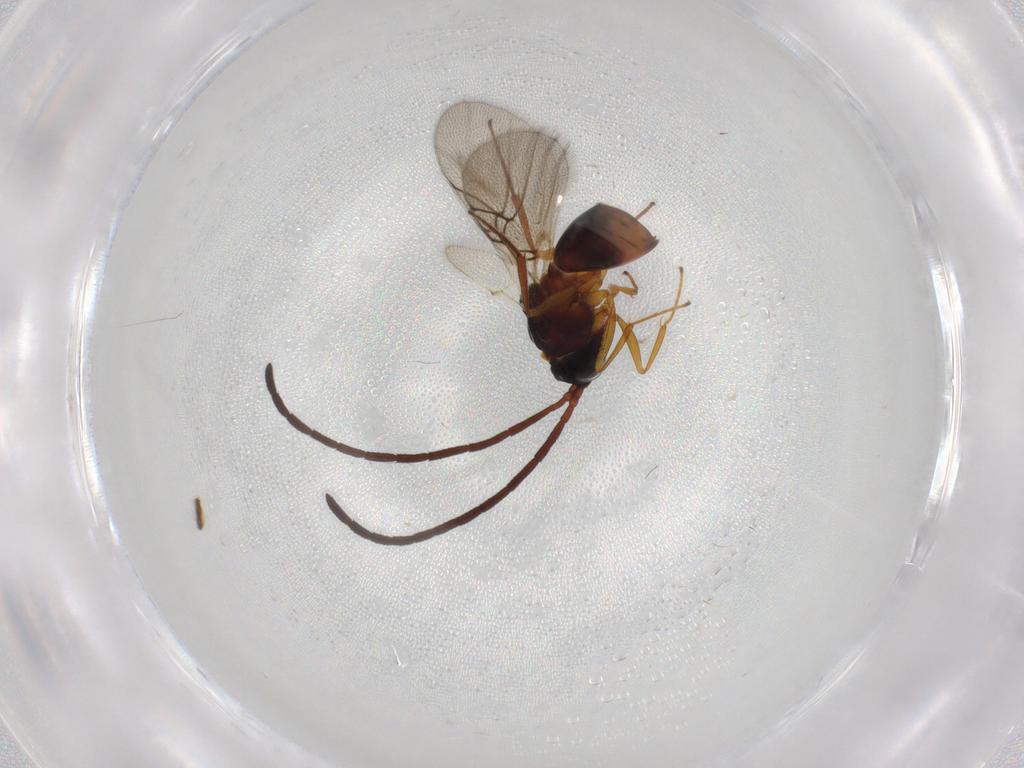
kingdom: Animalia
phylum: Arthropoda
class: Insecta
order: Hymenoptera
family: Figitidae
